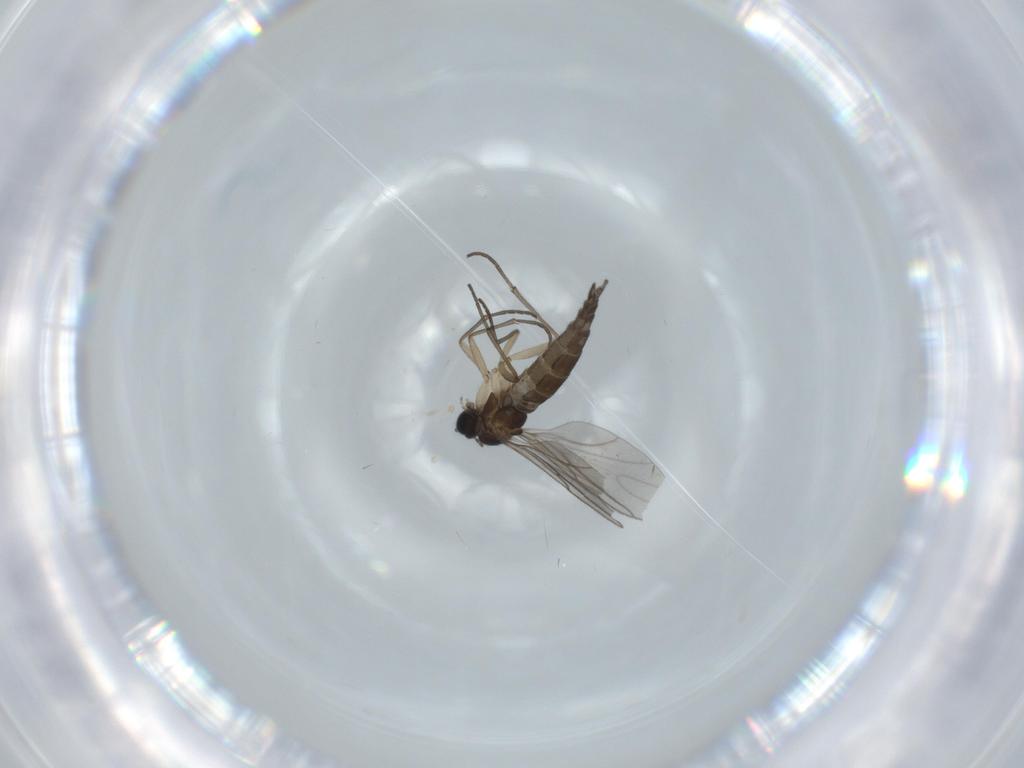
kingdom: Animalia
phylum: Arthropoda
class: Insecta
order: Diptera
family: Sciaridae
